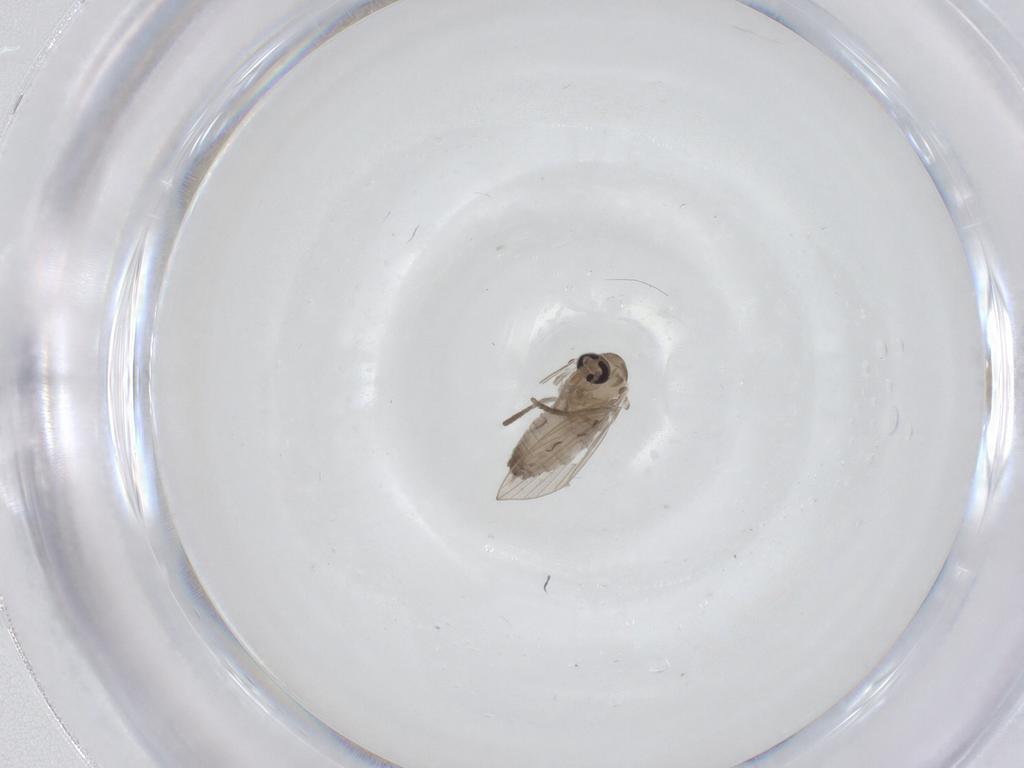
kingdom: Animalia
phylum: Arthropoda
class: Insecta
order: Diptera
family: Psychodidae
